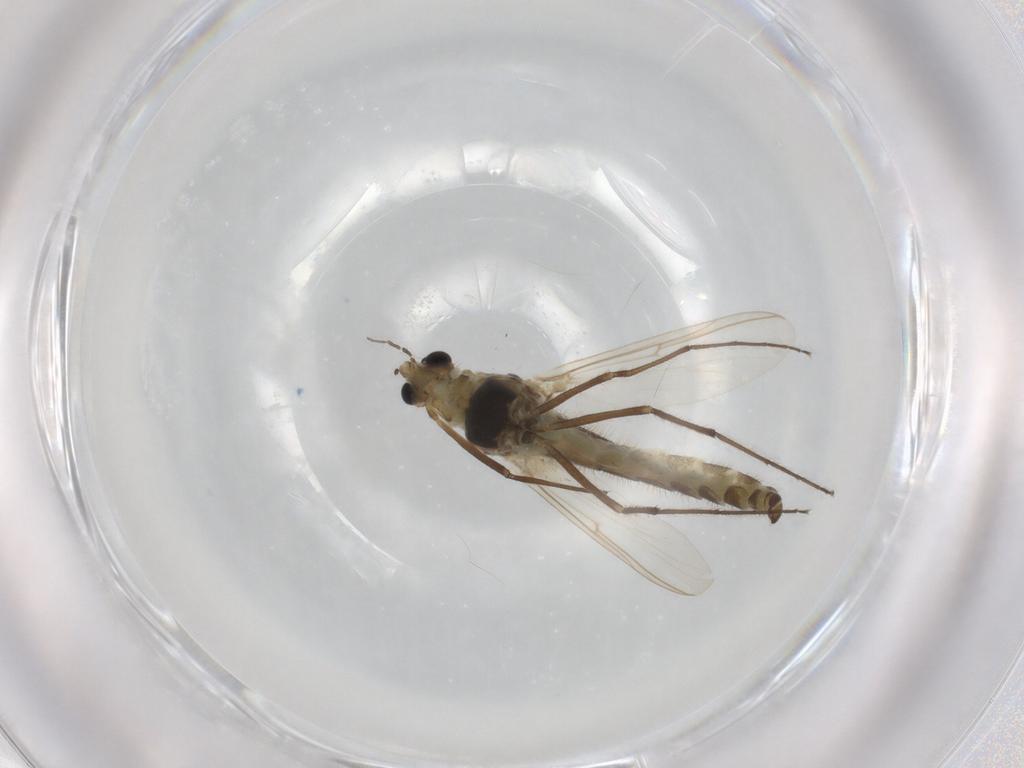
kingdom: Animalia
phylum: Arthropoda
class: Insecta
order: Diptera
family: Chironomidae
